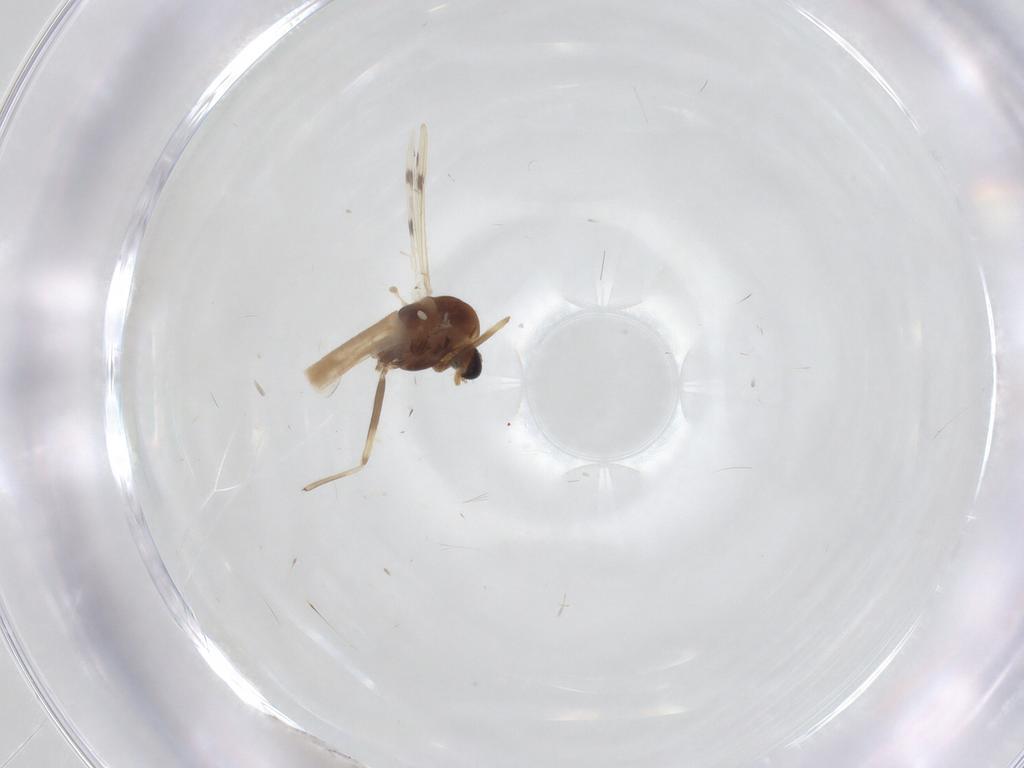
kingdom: Animalia
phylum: Arthropoda
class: Insecta
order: Diptera
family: Chironomidae
